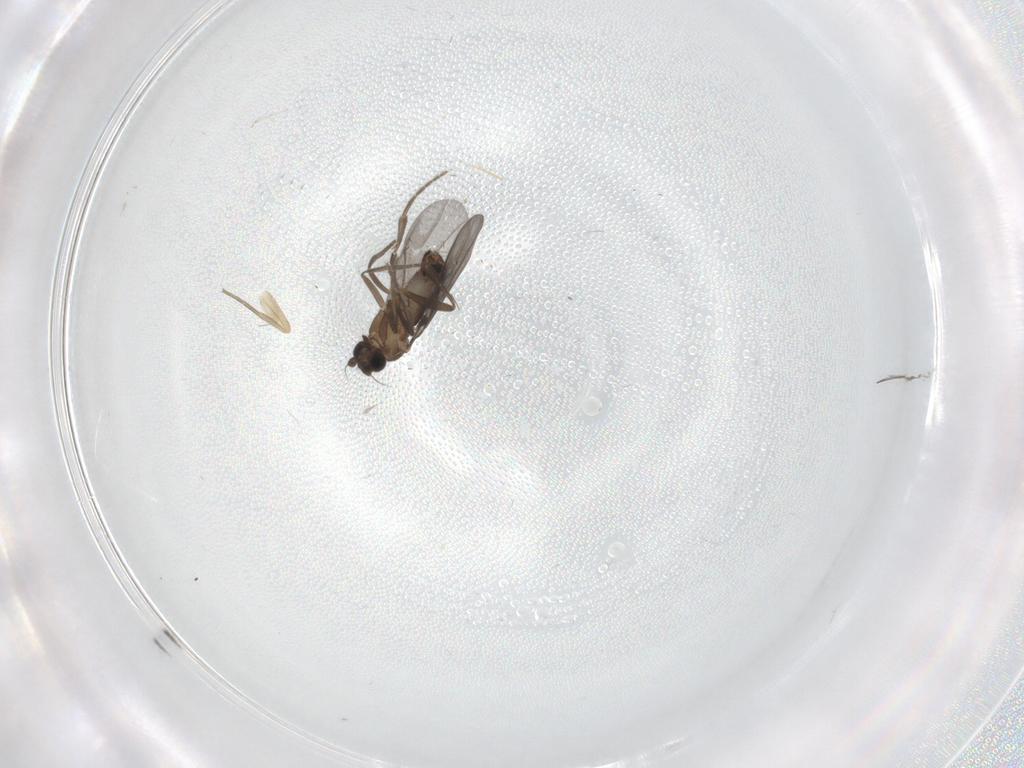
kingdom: Animalia
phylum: Arthropoda
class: Insecta
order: Diptera
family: Phoridae
